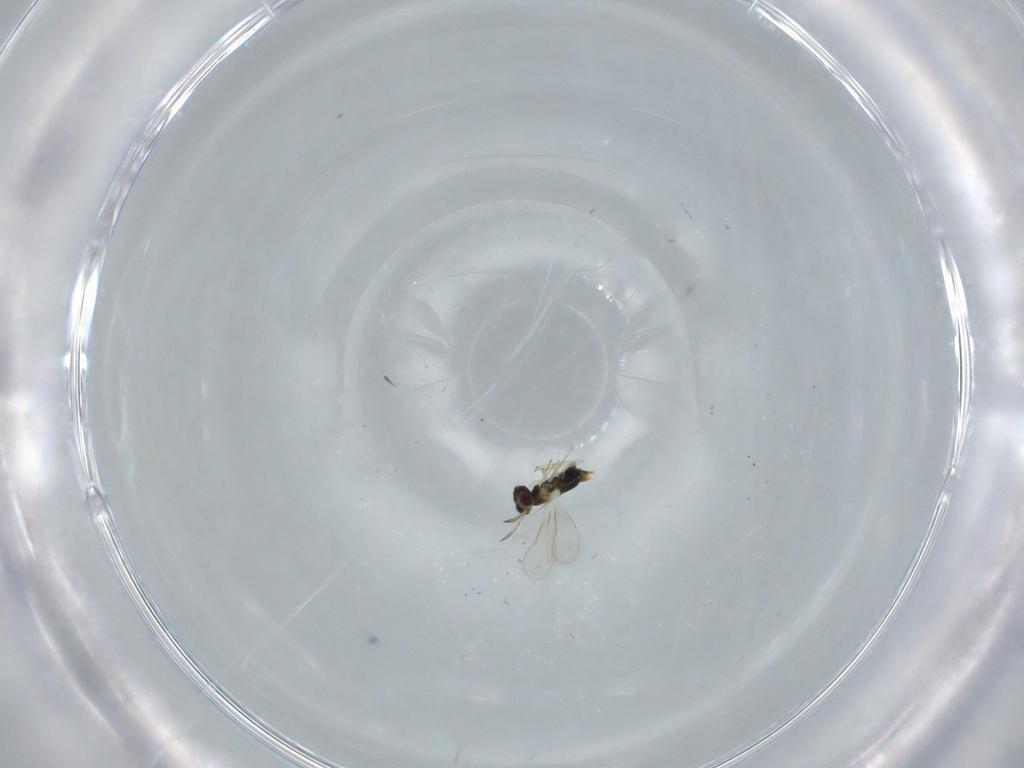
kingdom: Animalia
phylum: Arthropoda
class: Insecta
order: Hymenoptera
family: Aphelinidae
